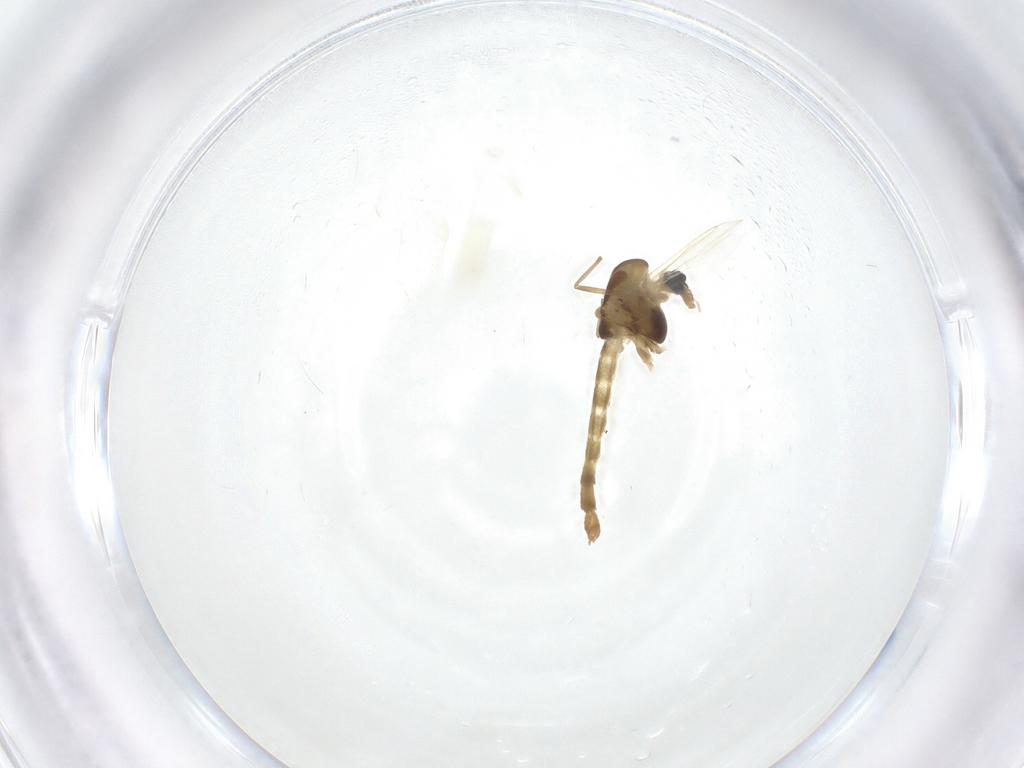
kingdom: Animalia
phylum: Arthropoda
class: Insecta
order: Diptera
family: Chironomidae
